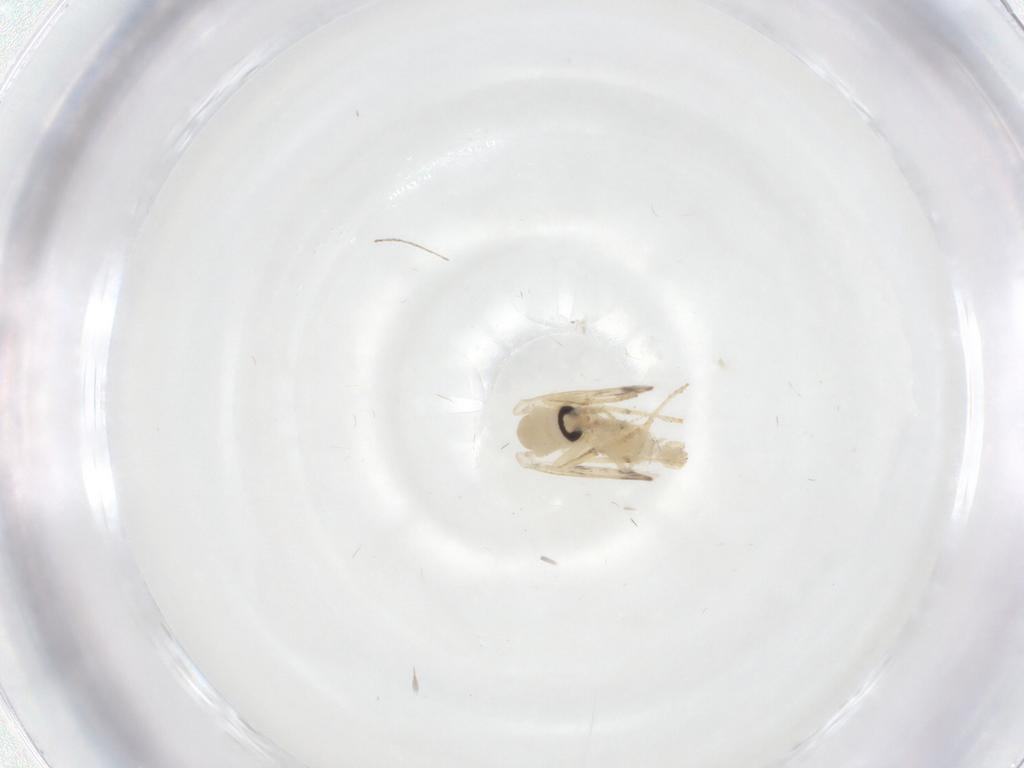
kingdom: Animalia
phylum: Arthropoda
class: Insecta
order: Diptera
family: Psychodidae
